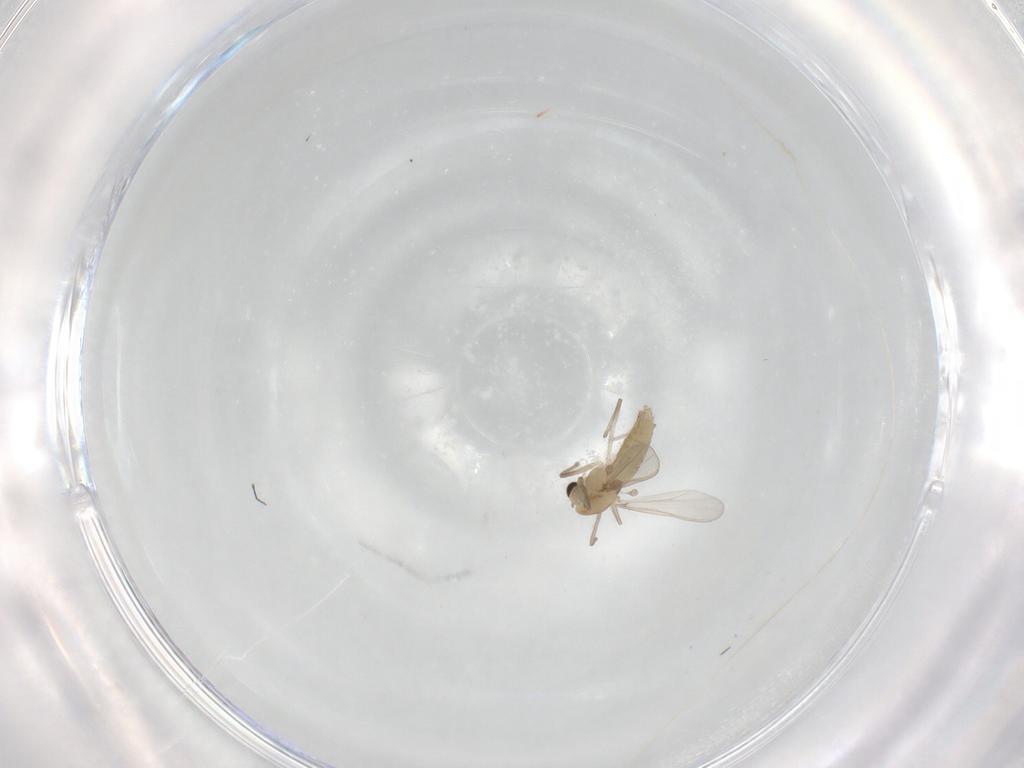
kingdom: Animalia
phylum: Arthropoda
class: Insecta
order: Diptera
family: Chironomidae
